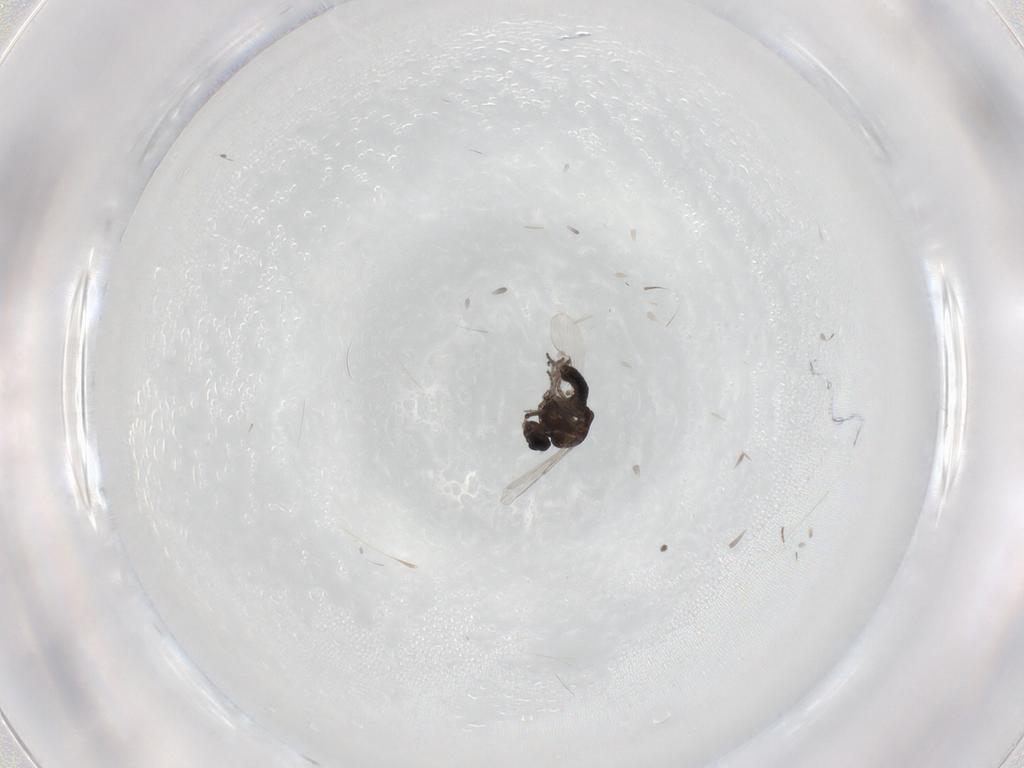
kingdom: Animalia
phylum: Arthropoda
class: Insecta
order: Diptera
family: Ceratopogonidae
